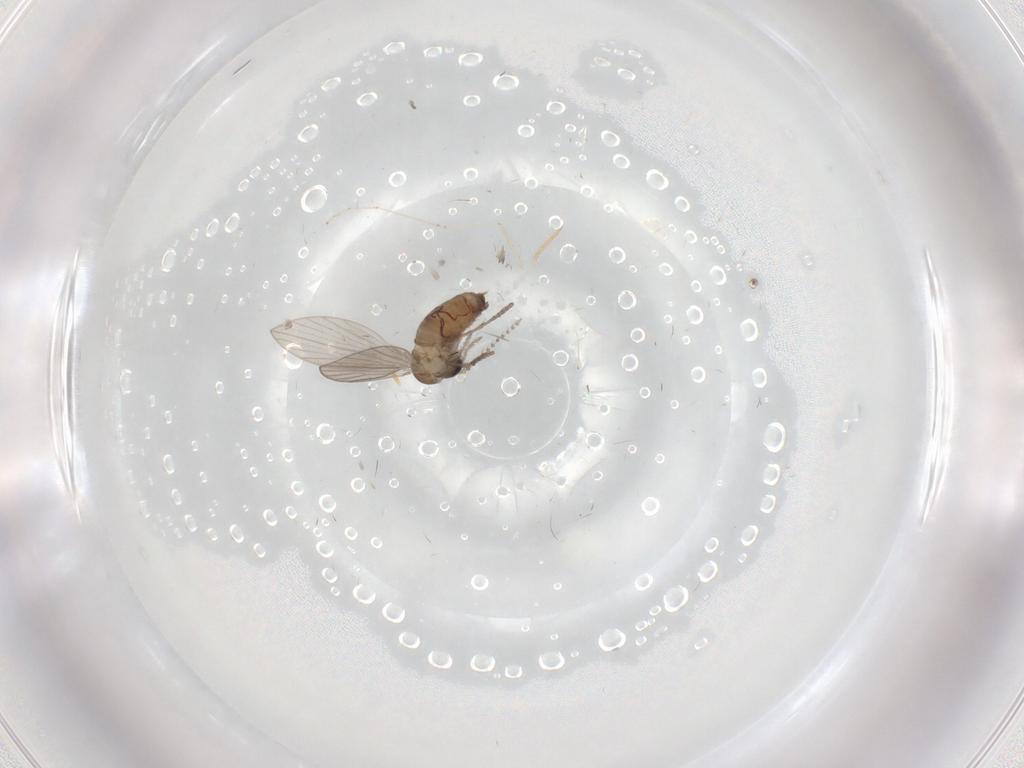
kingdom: Animalia
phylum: Arthropoda
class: Insecta
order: Diptera
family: Psychodidae
